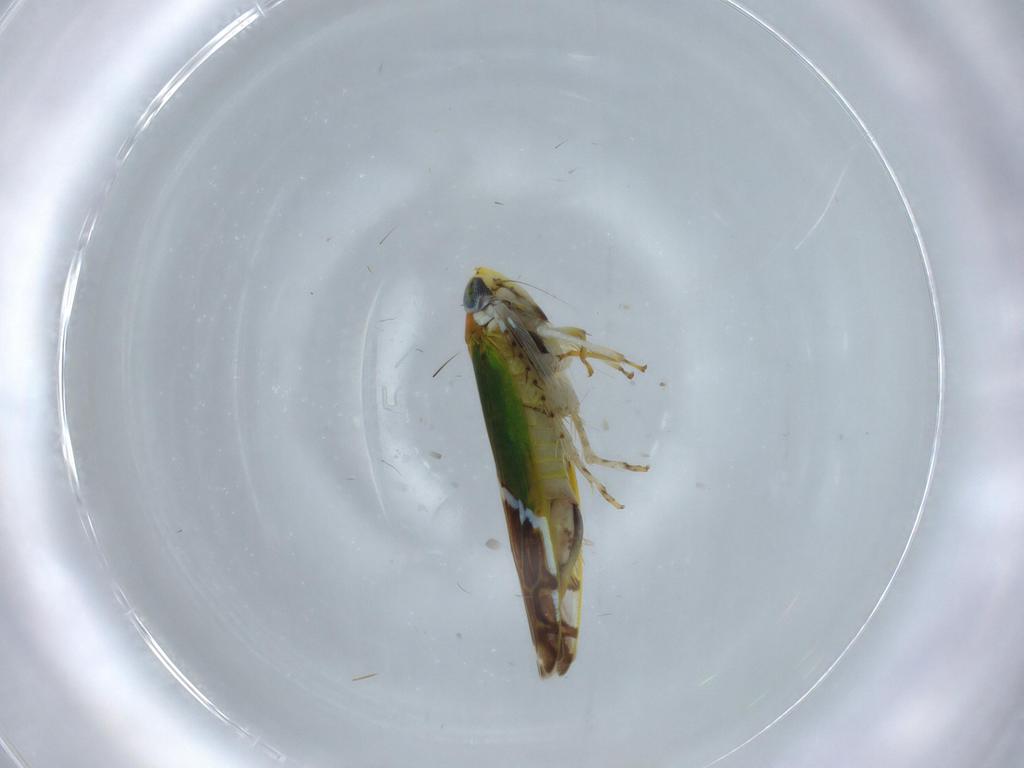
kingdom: Animalia
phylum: Arthropoda
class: Insecta
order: Hemiptera
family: Cicadellidae
